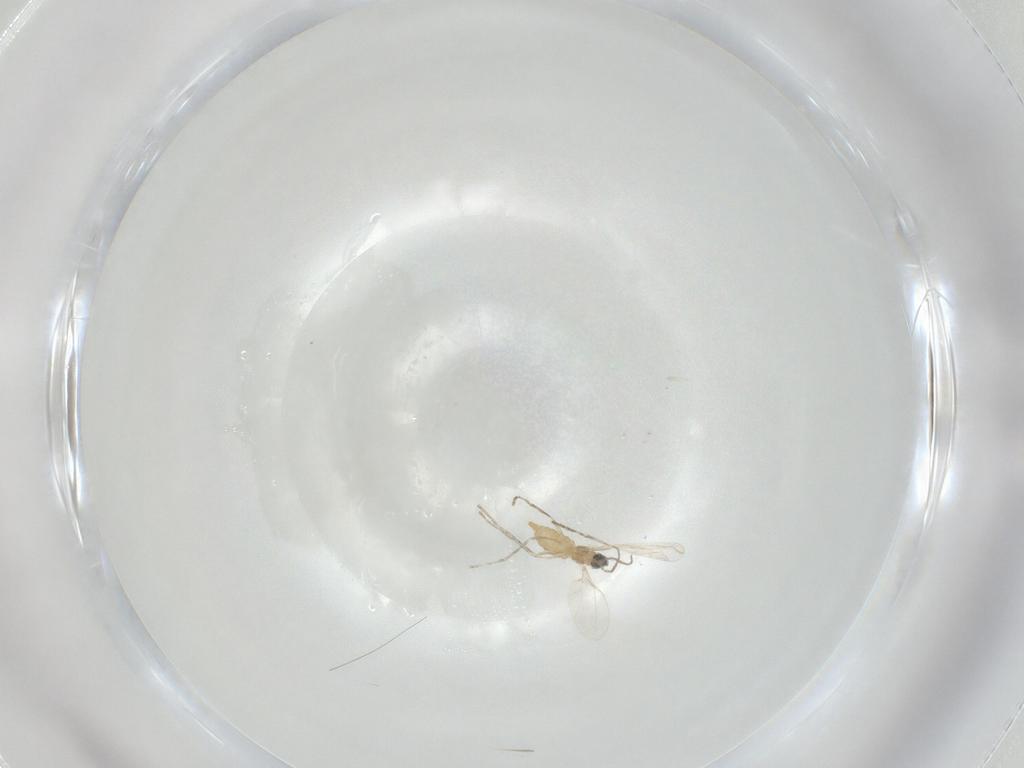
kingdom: Animalia
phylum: Arthropoda
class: Insecta
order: Diptera
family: Cecidomyiidae
